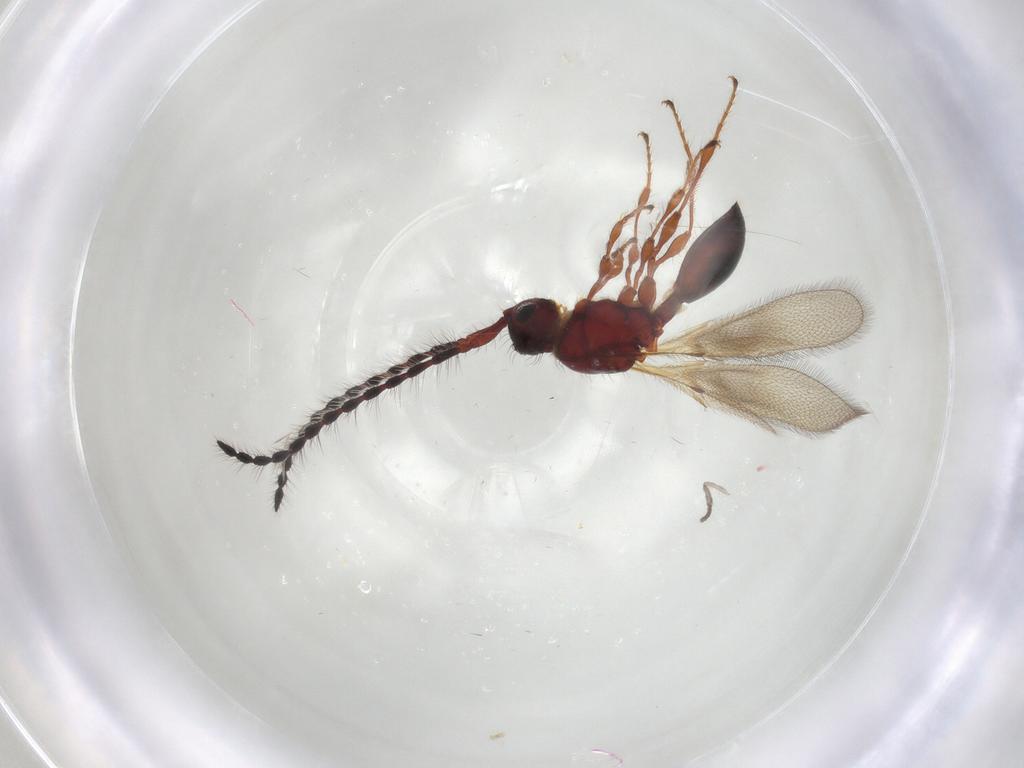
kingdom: Animalia
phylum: Arthropoda
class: Insecta
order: Hymenoptera
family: Diapriidae
